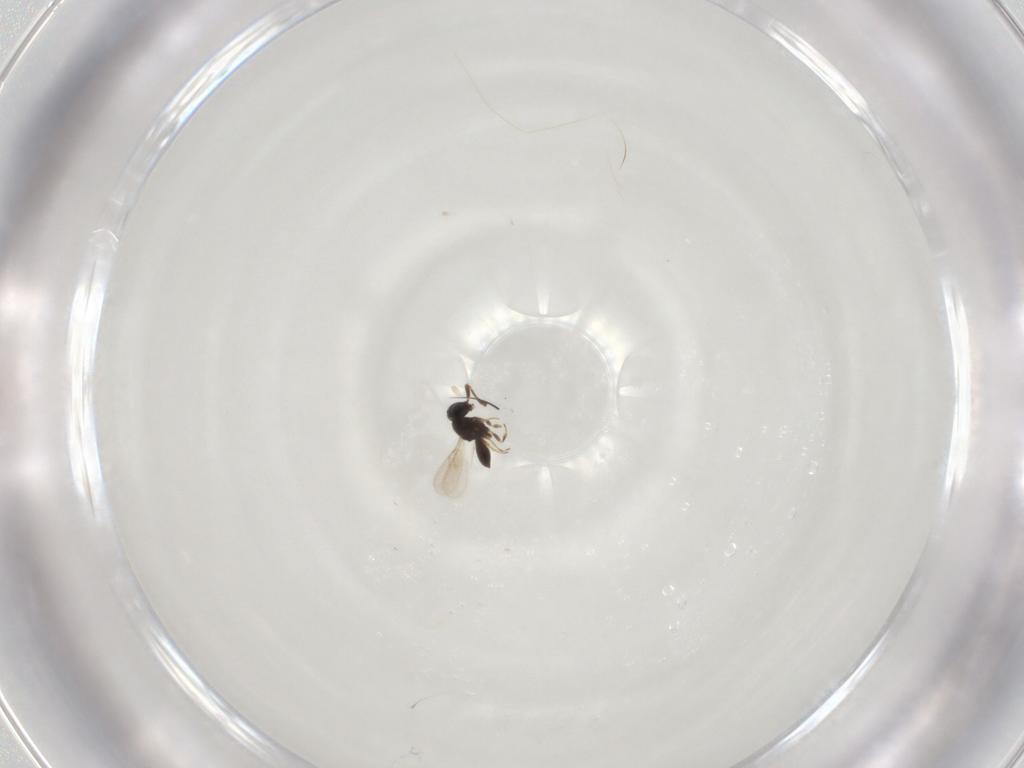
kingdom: Animalia
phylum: Arthropoda
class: Insecta
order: Hymenoptera
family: Scelionidae
